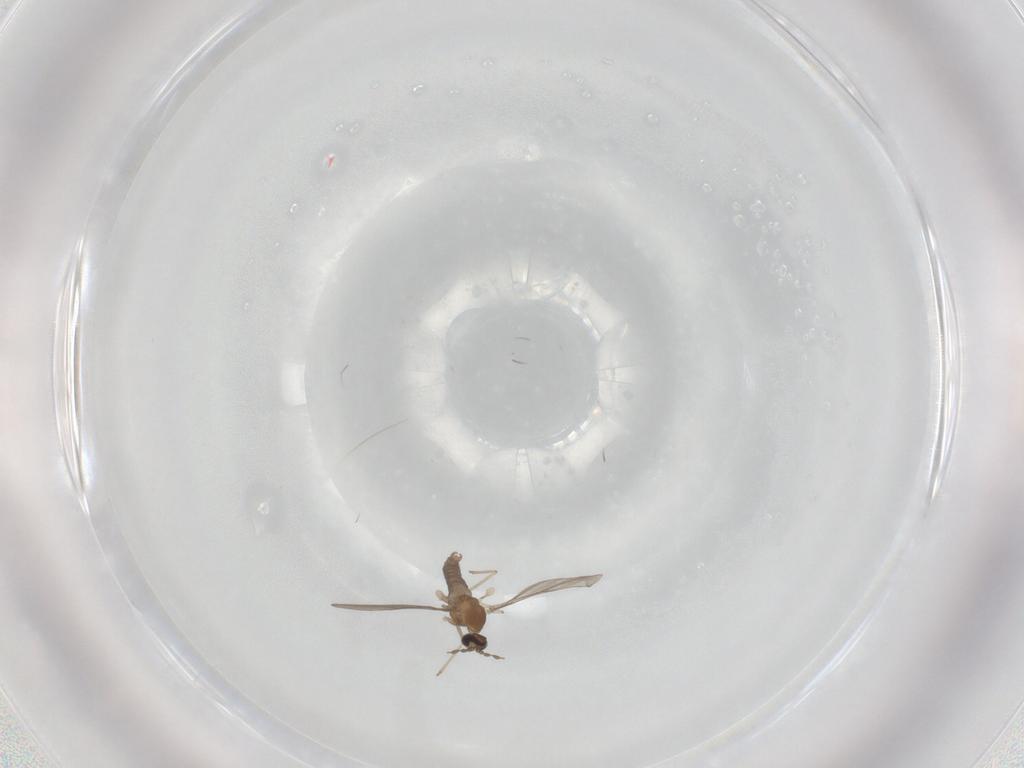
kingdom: Animalia
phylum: Arthropoda
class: Insecta
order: Diptera
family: Cecidomyiidae
